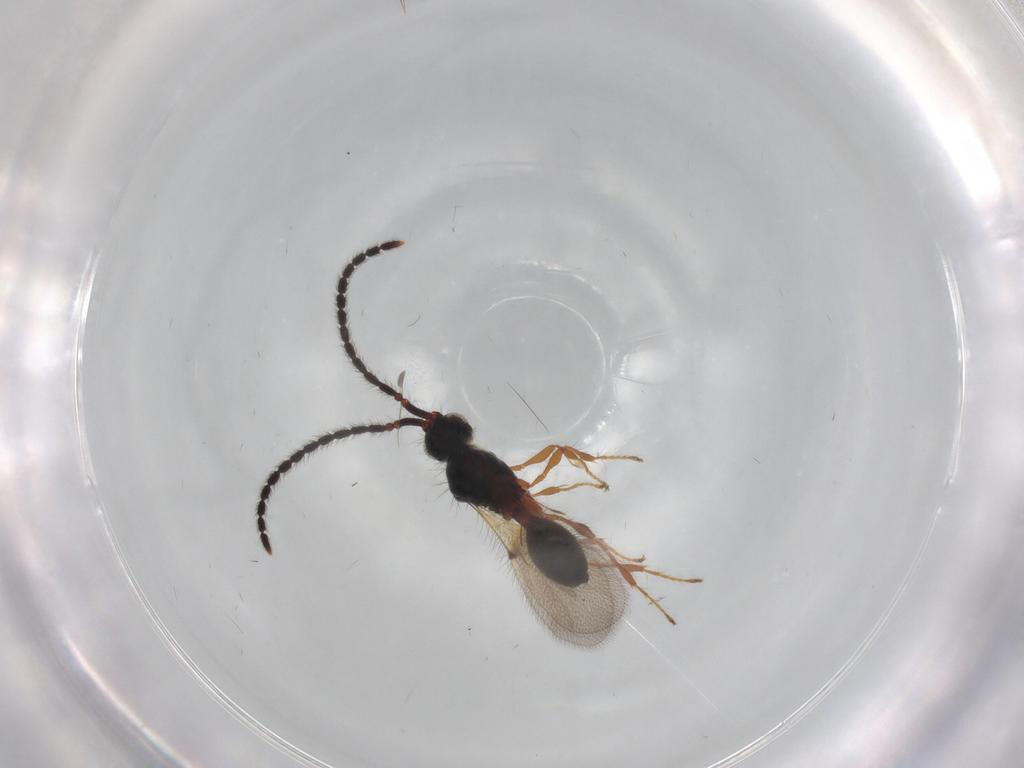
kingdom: Animalia
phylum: Arthropoda
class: Insecta
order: Hymenoptera
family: Diapriidae
